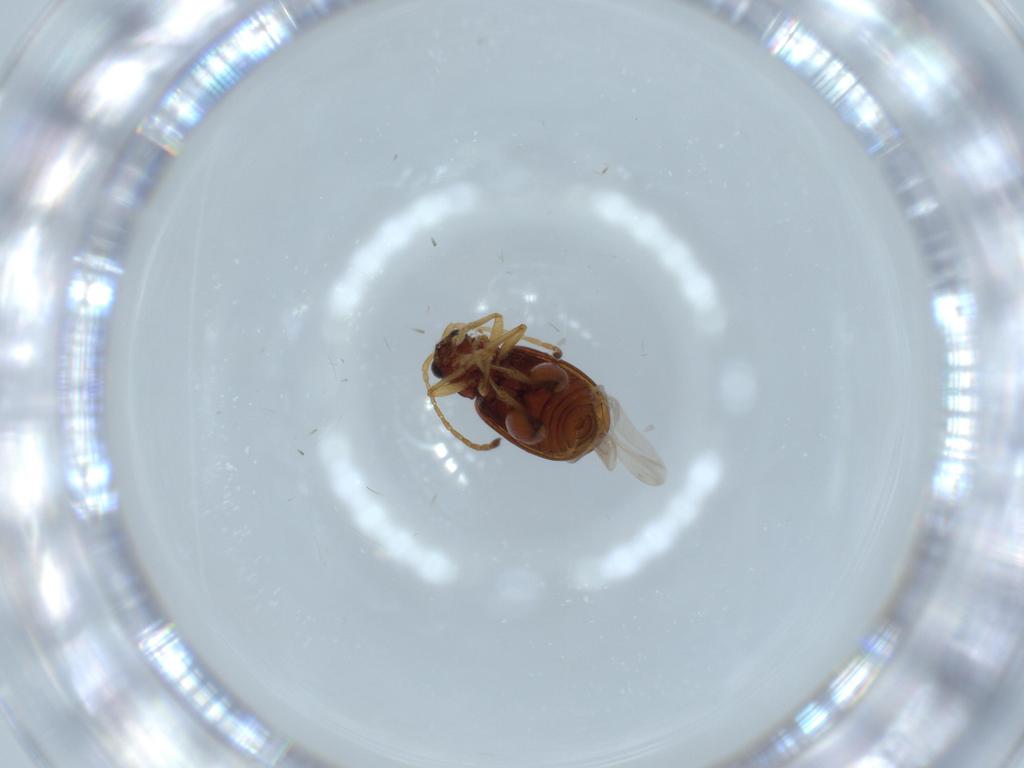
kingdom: Animalia
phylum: Arthropoda
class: Insecta
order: Coleoptera
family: Chrysomelidae
